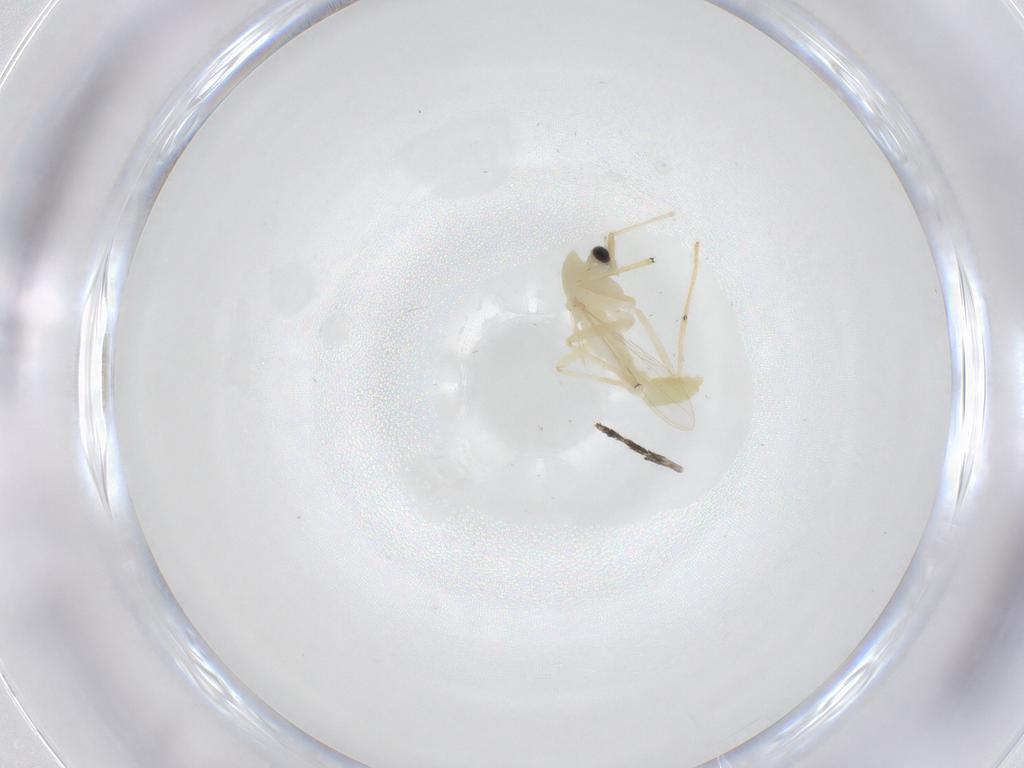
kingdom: Animalia
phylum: Arthropoda
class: Insecta
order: Diptera
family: Chironomidae
